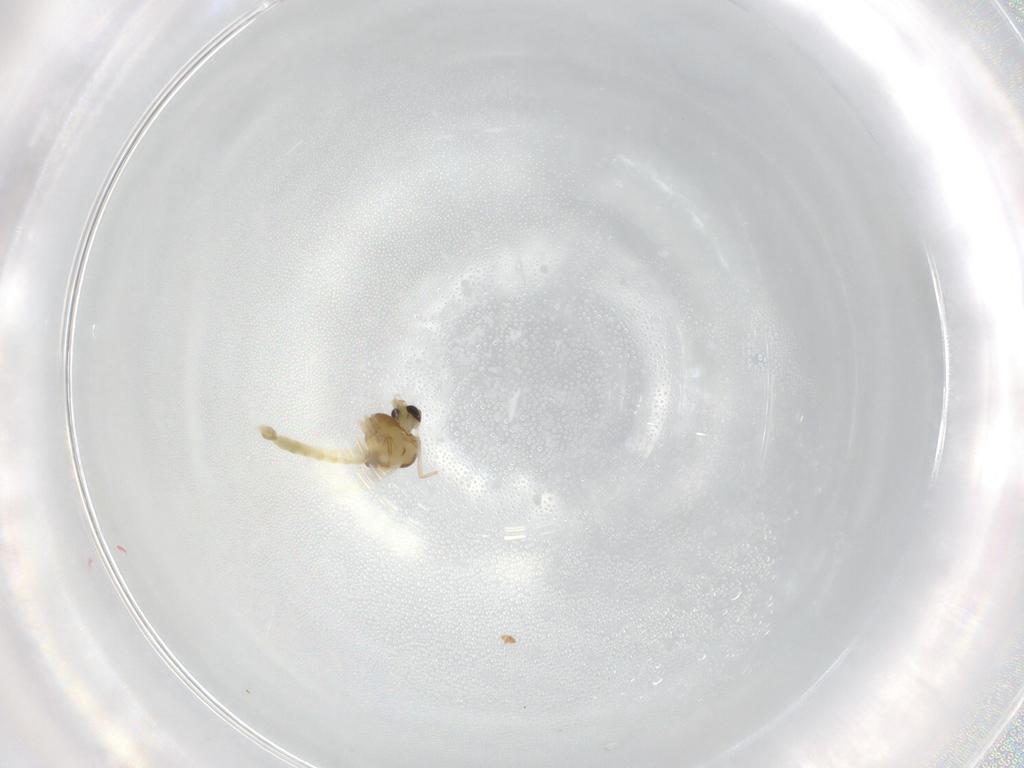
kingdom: Animalia
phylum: Arthropoda
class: Insecta
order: Diptera
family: Chironomidae
